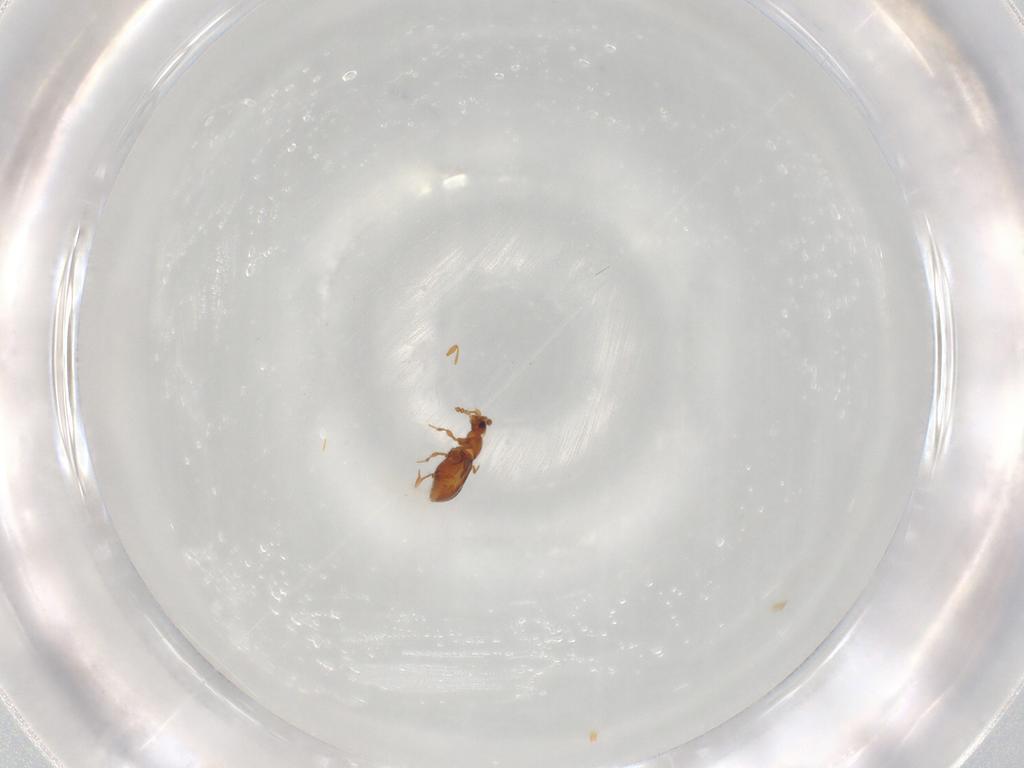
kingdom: Animalia
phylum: Arthropoda
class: Insecta
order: Coleoptera
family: Staphylinidae
